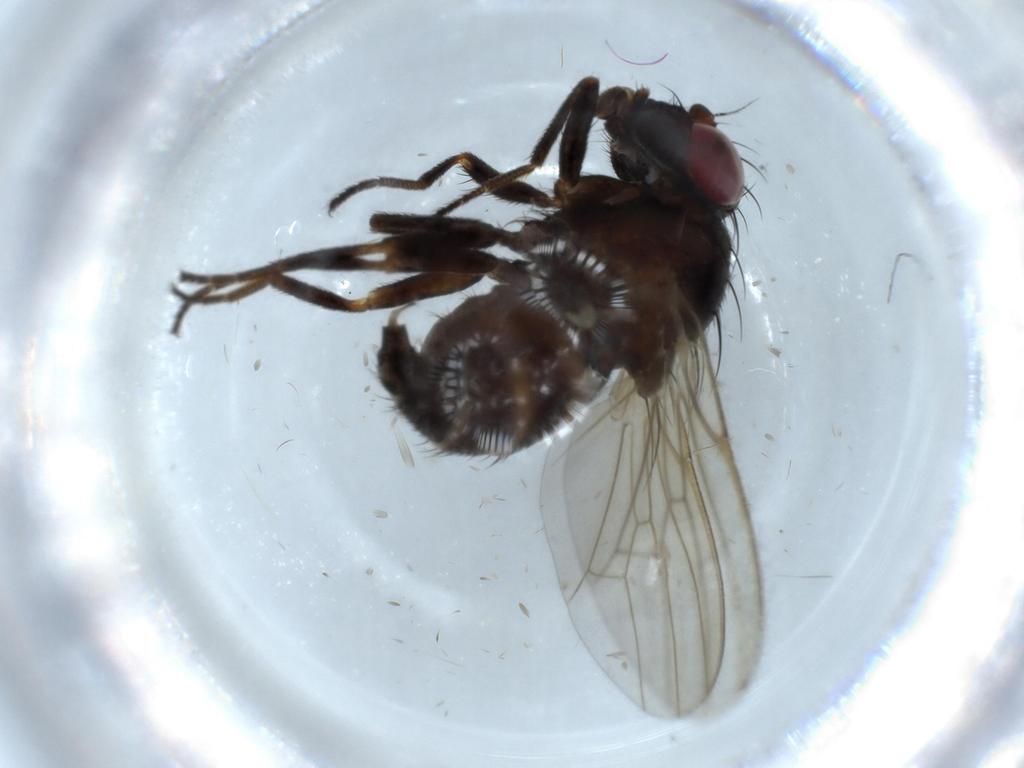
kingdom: Animalia
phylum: Arthropoda
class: Insecta
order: Diptera
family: Odiniidae
